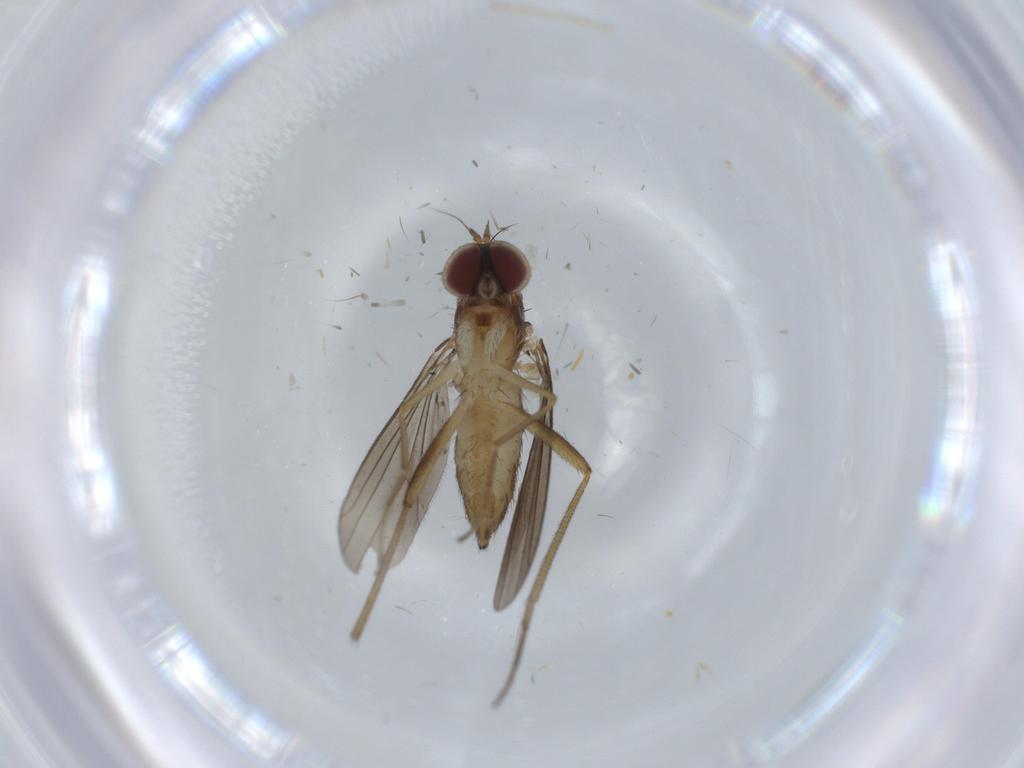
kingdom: Animalia
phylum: Arthropoda
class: Insecta
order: Diptera
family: Dolichopodidae
